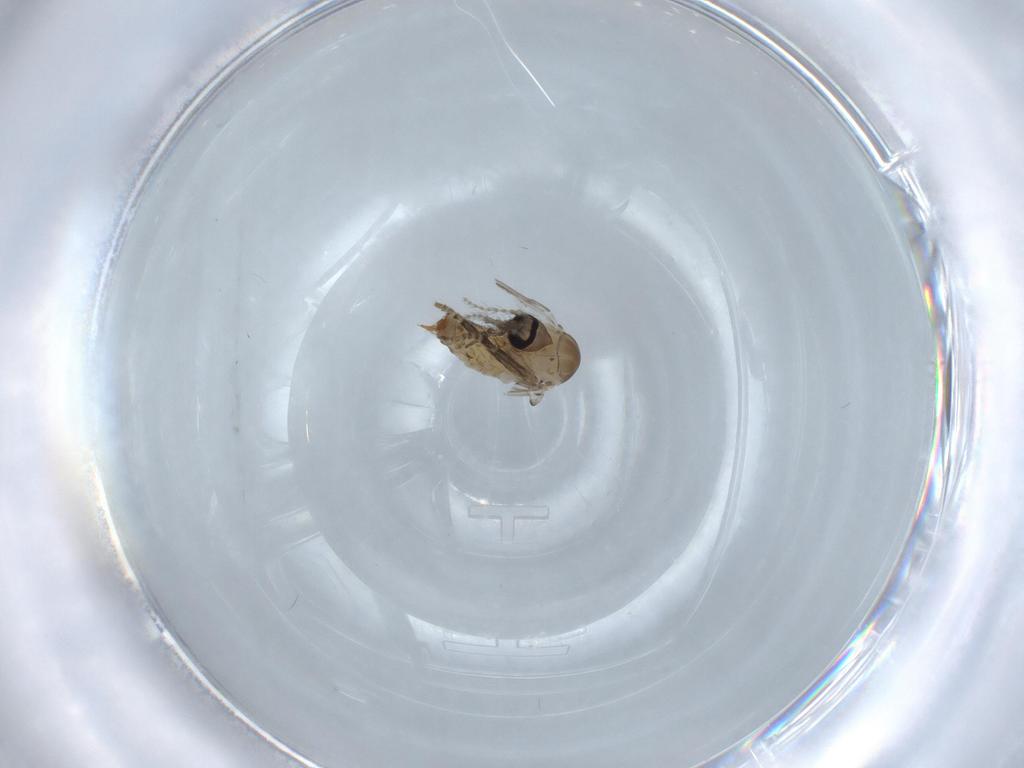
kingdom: Animalia
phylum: Arthropoda
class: Insecta
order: Diptera
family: Psychodidae
